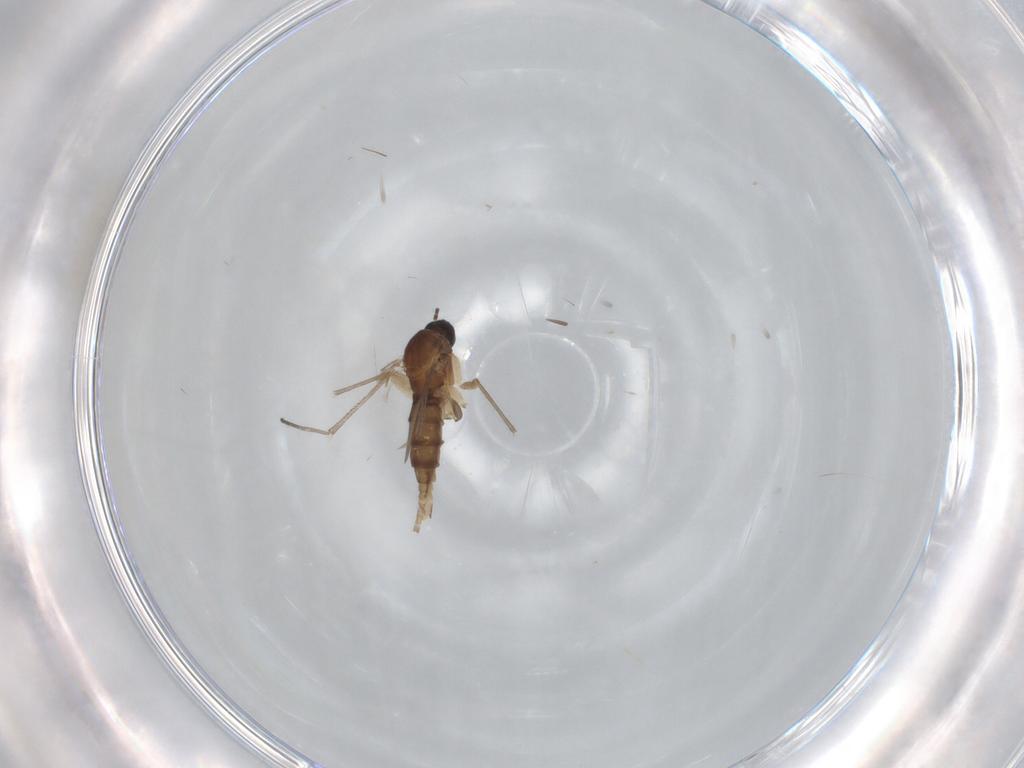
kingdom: Animalia
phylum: Arthropoda
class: Insecta
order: Diptera
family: Sciaridae
